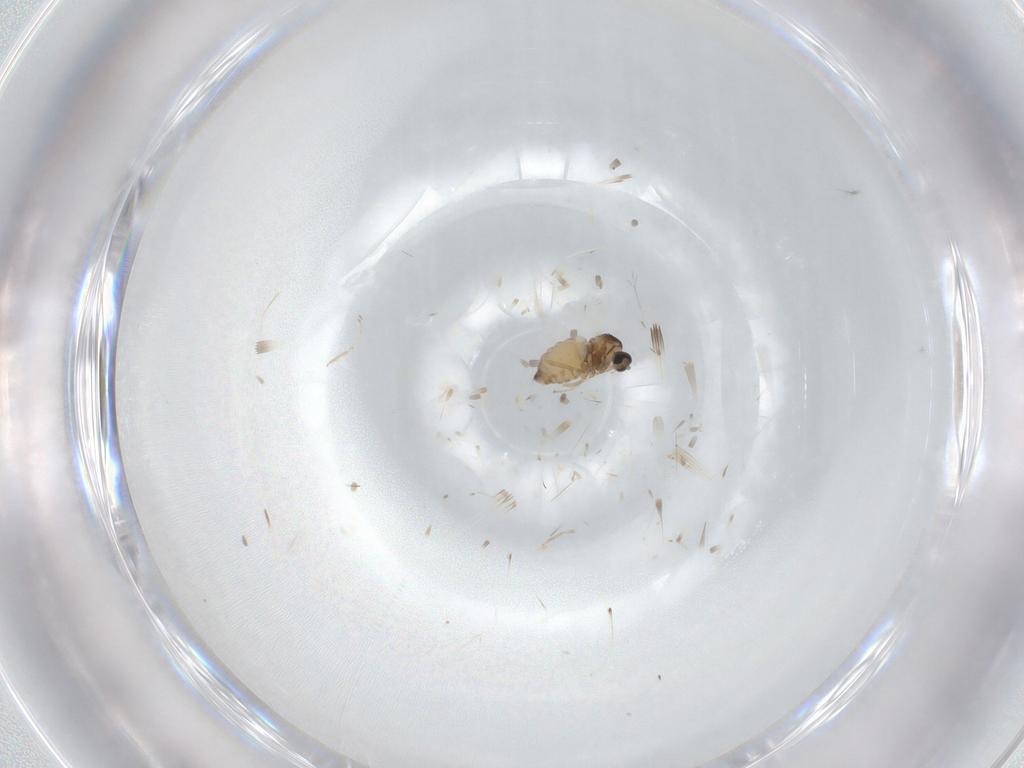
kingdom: Animalia
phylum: Arthropoda
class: Insecta
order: Diptera
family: Cecidomyiidae
